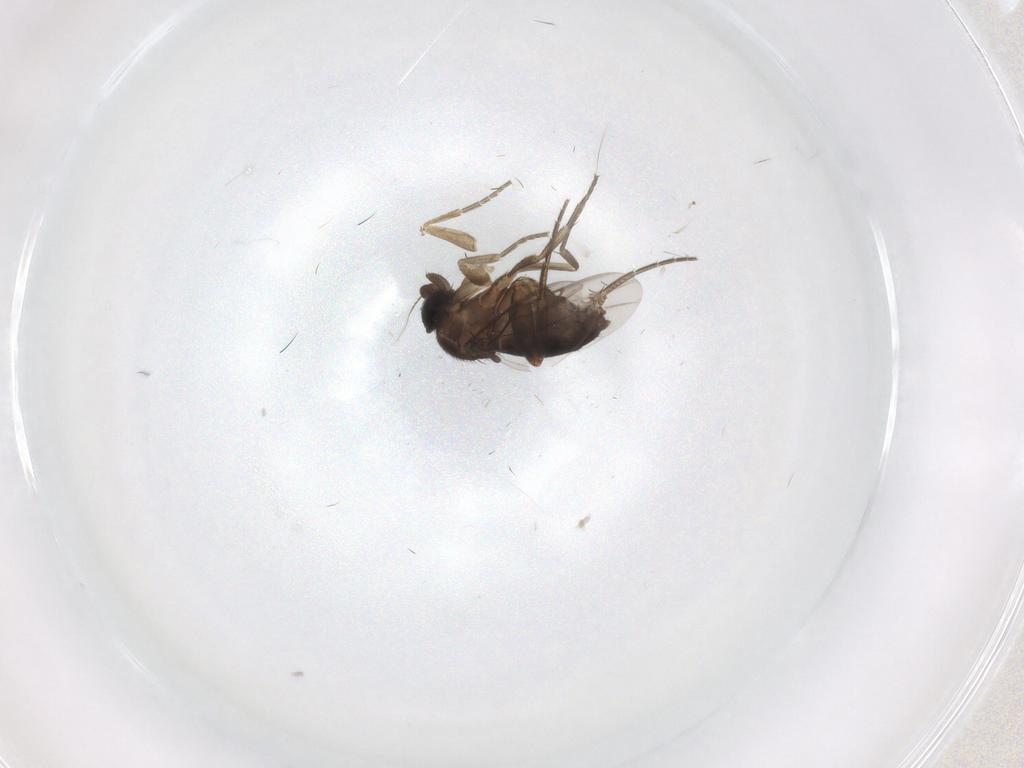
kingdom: Animalia
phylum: Arthropoda
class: Insecta
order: Diptera
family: Phoridae
